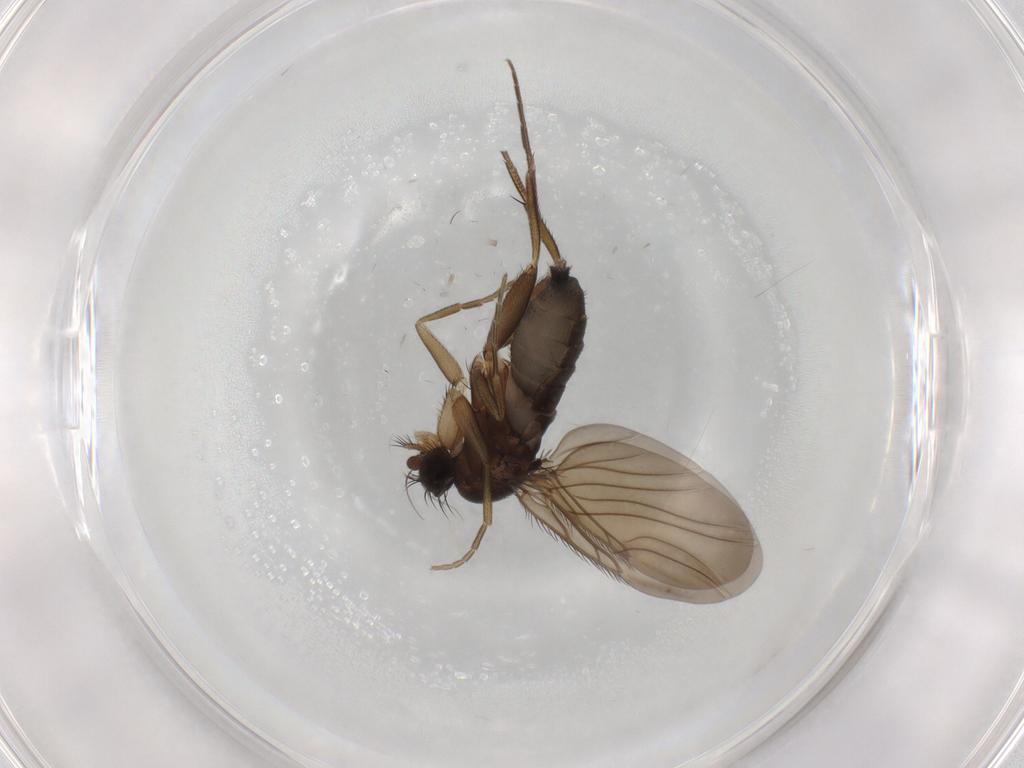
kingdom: Animalia
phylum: Arthropoda
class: Insecta
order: Diptera
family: Phoridae
